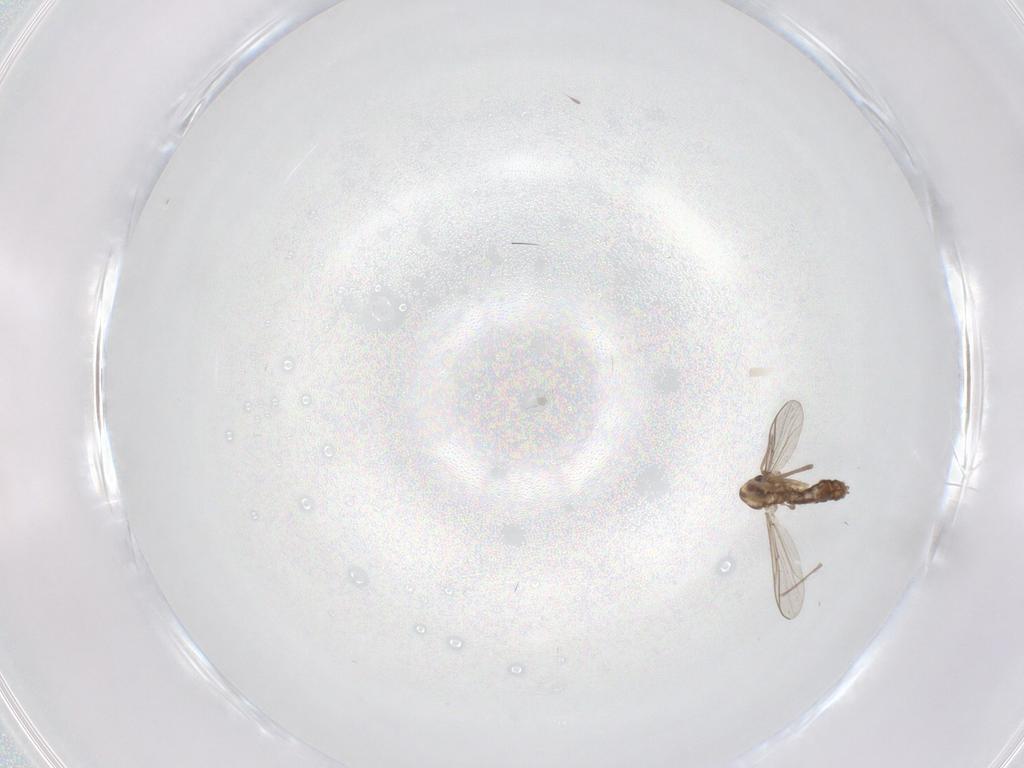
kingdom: Animalia
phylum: Arthropoda
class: Insecta
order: Diptera
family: Chironomidae
